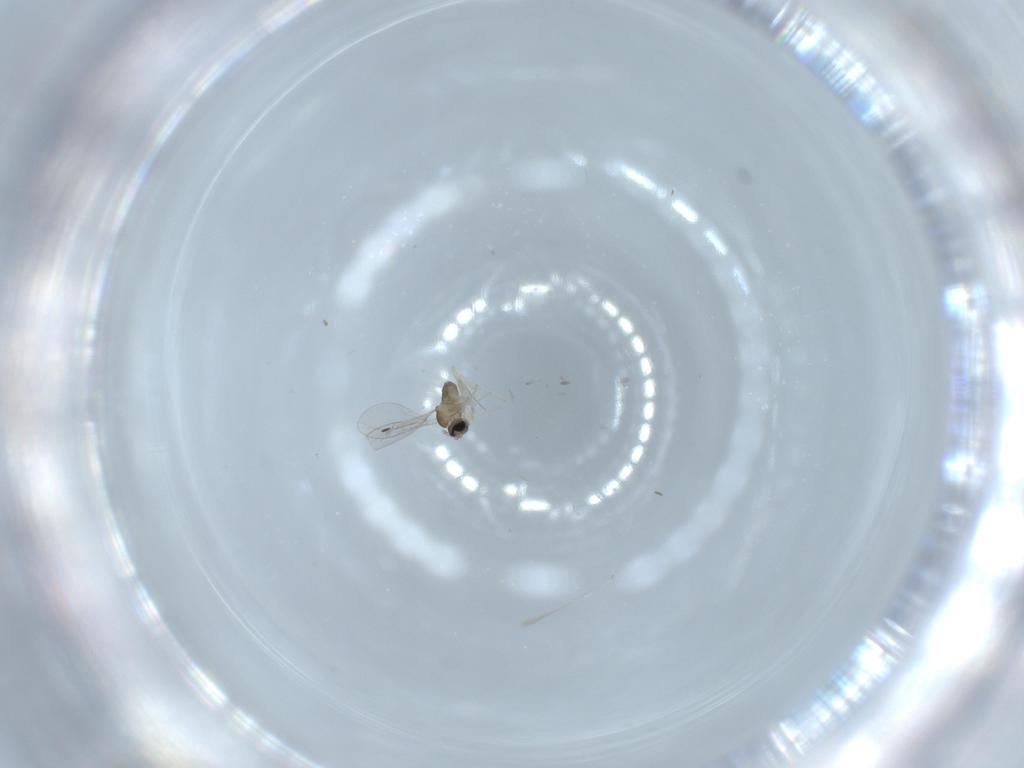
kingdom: Animalia
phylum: Arthropoda
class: Insecta
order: Diptera
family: Cecidomyiidae
